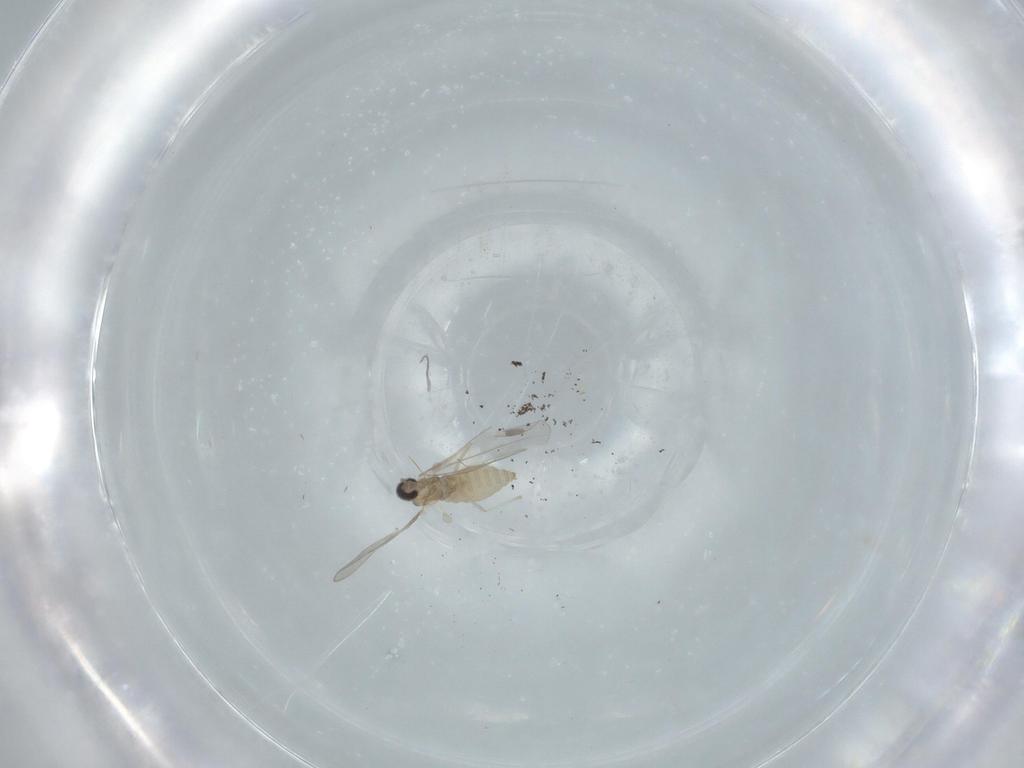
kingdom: Animalia
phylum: Arthropoda
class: Insecta
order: Diptera
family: Cecidomyiidae
